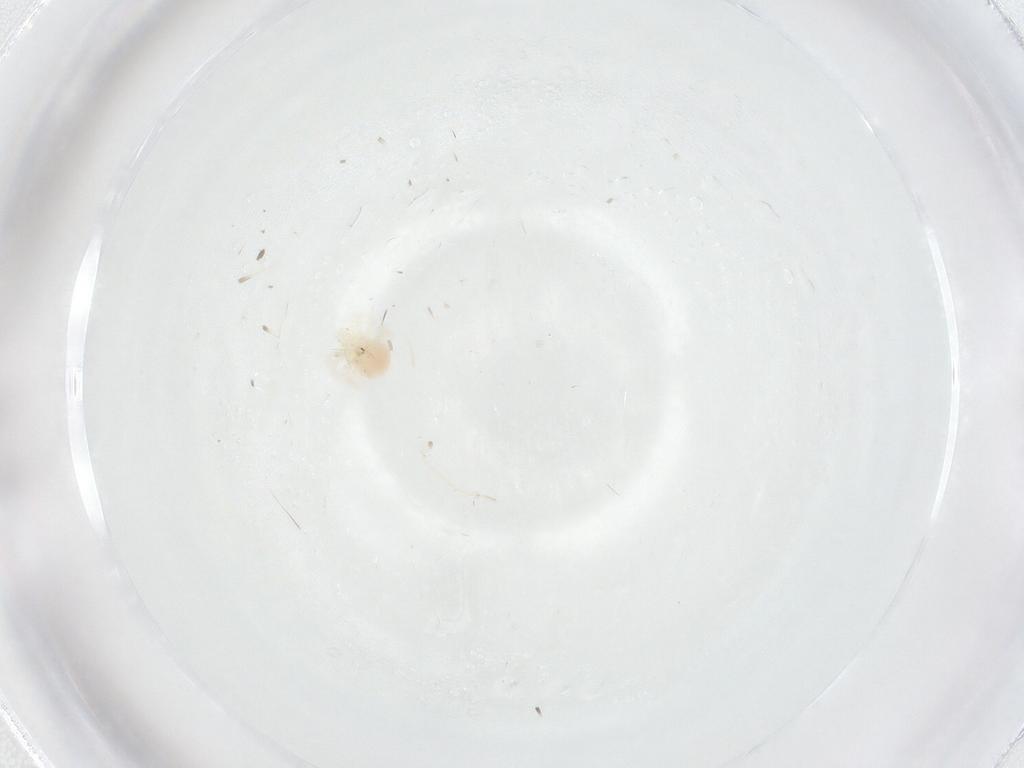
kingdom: Animalia
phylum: Arthropoda
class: Arachnida
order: Trombidiformes
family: Anystidae
